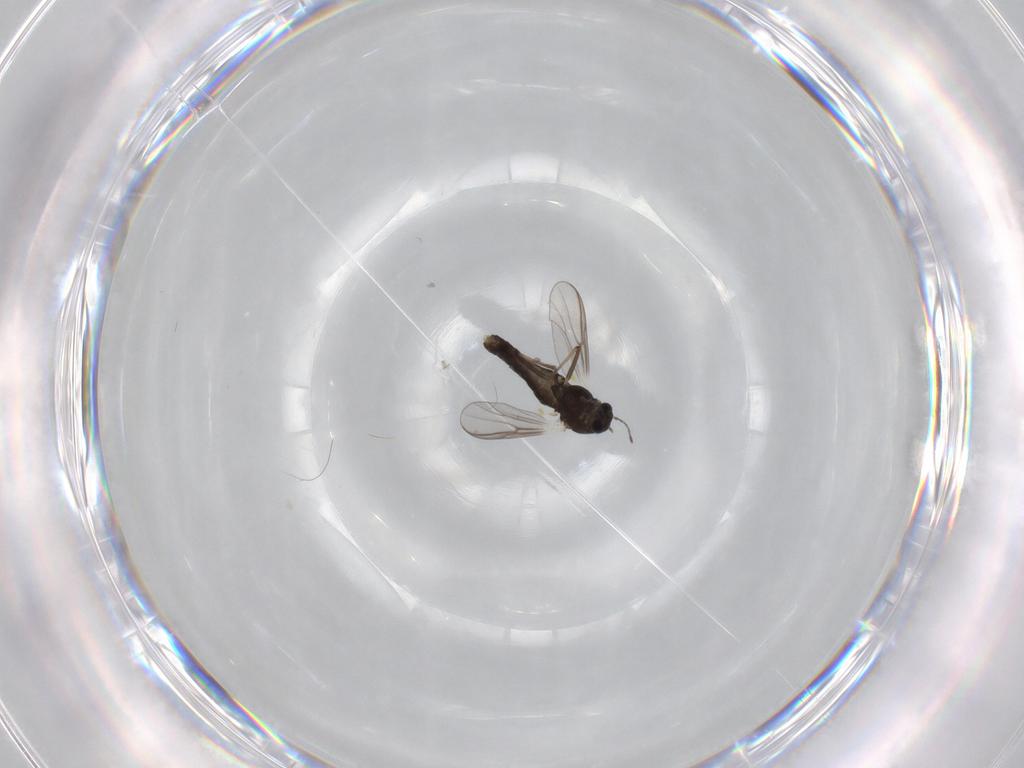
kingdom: Animalia
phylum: Arthropoda
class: Insecta
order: Diptera
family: Chironomidae
